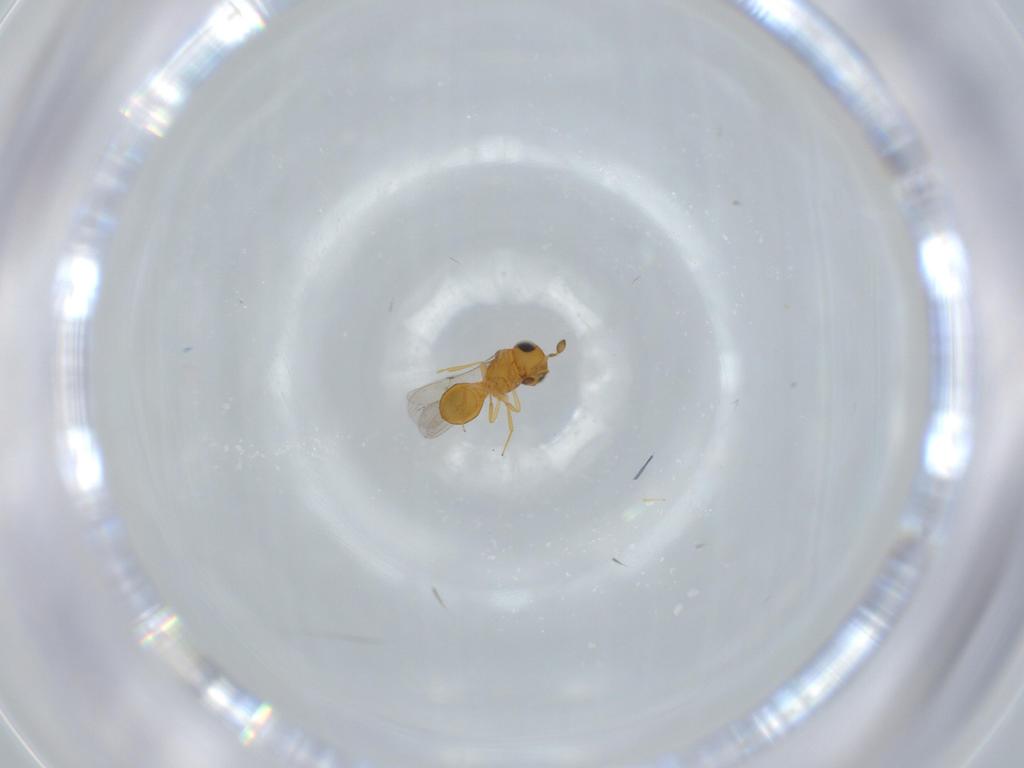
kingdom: Animalia
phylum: Arthropoda
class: Insecta
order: Hymenoptera
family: Scelionidae
